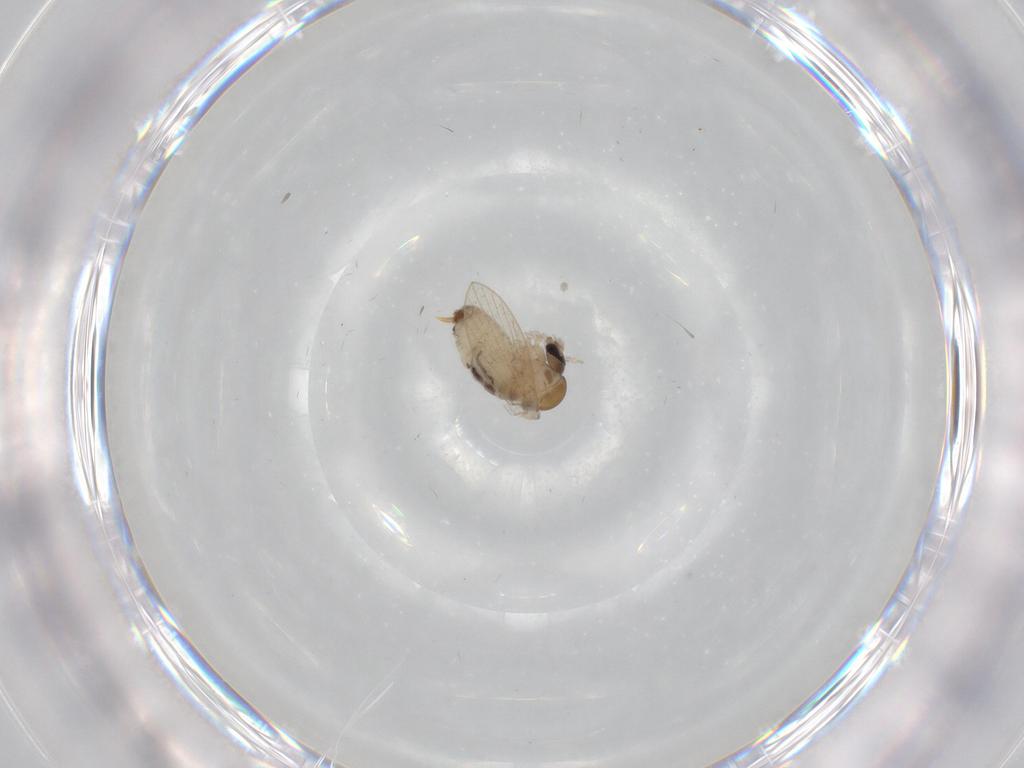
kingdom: Animalia
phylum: Arthropoda
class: Insecta
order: Diptera
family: Psychodidae
